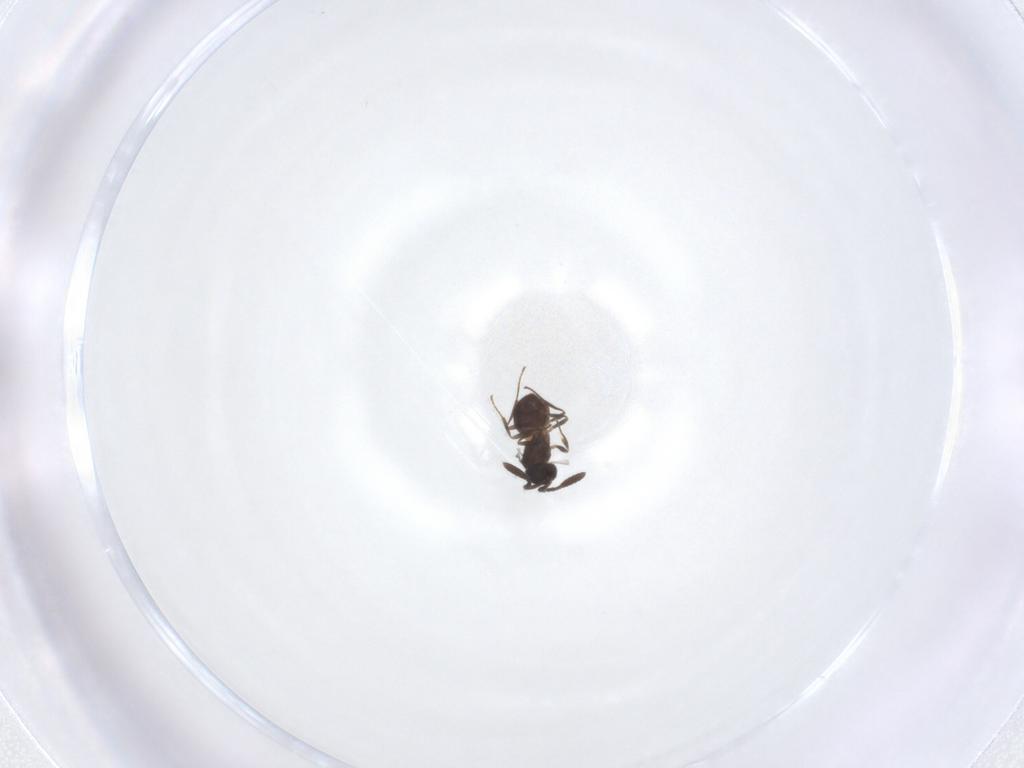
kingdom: Animalia
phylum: Arthropoda
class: Insecta
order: Hymenoptera
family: Scelionidae
